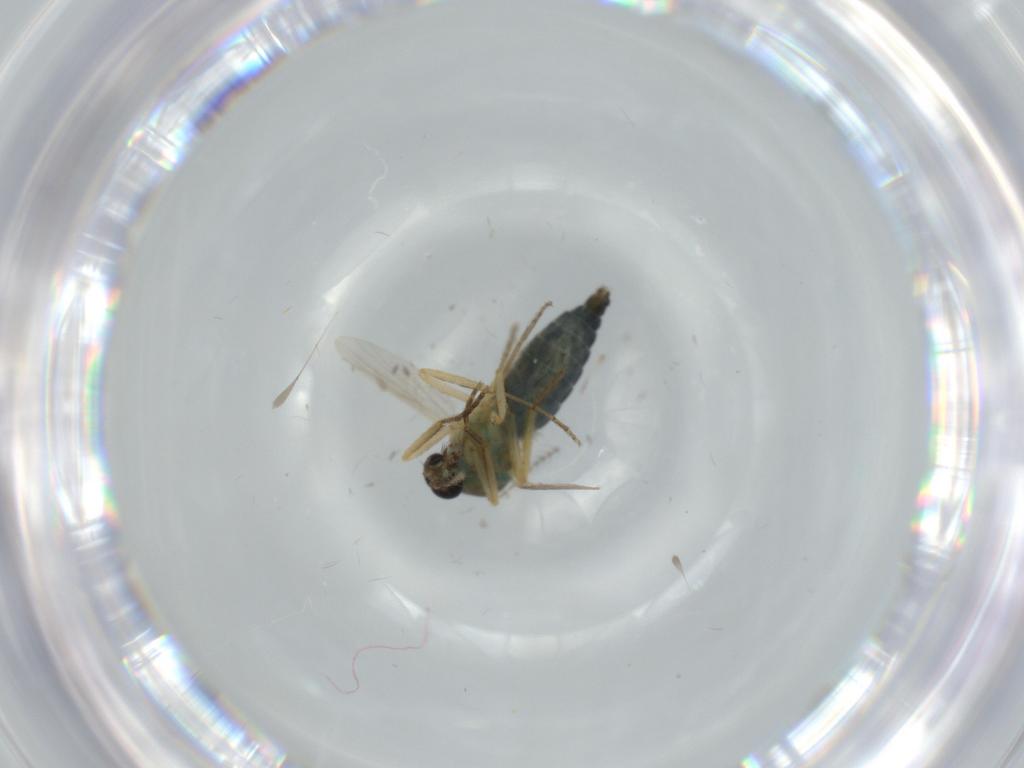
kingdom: Animalia
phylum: Arthropoda
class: Insecta
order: Diptera
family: Ceratopogonidae
